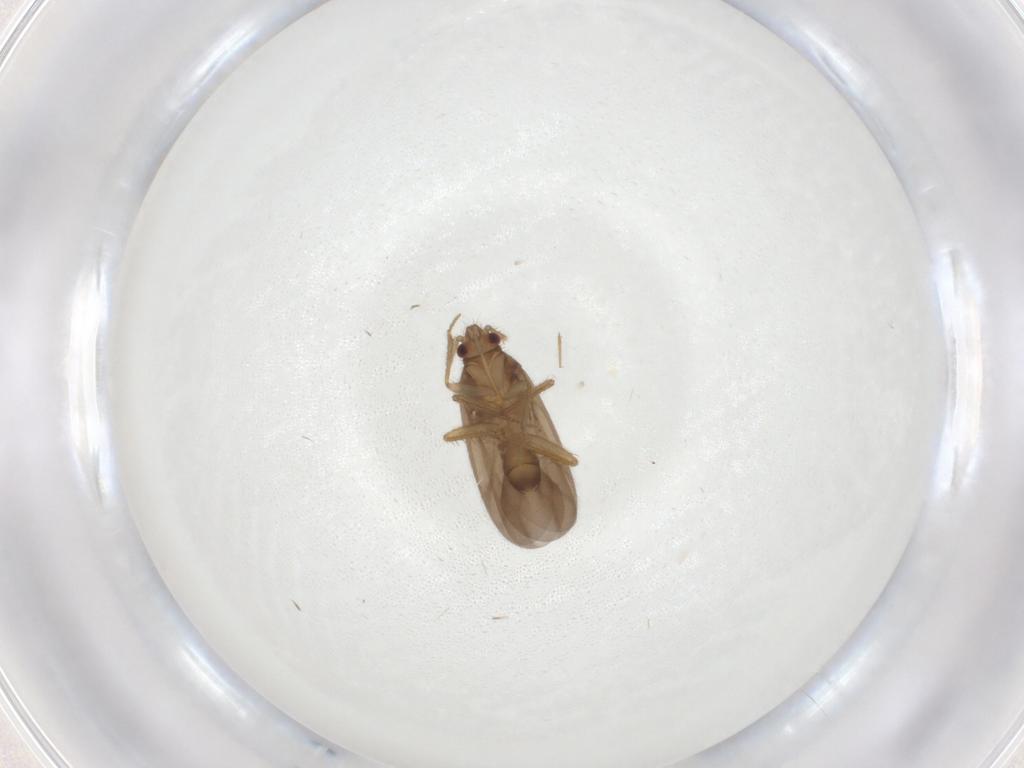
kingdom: Animalia
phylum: Arthropoda
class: Insecta
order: Hemiptera
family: Ceratocombidae
